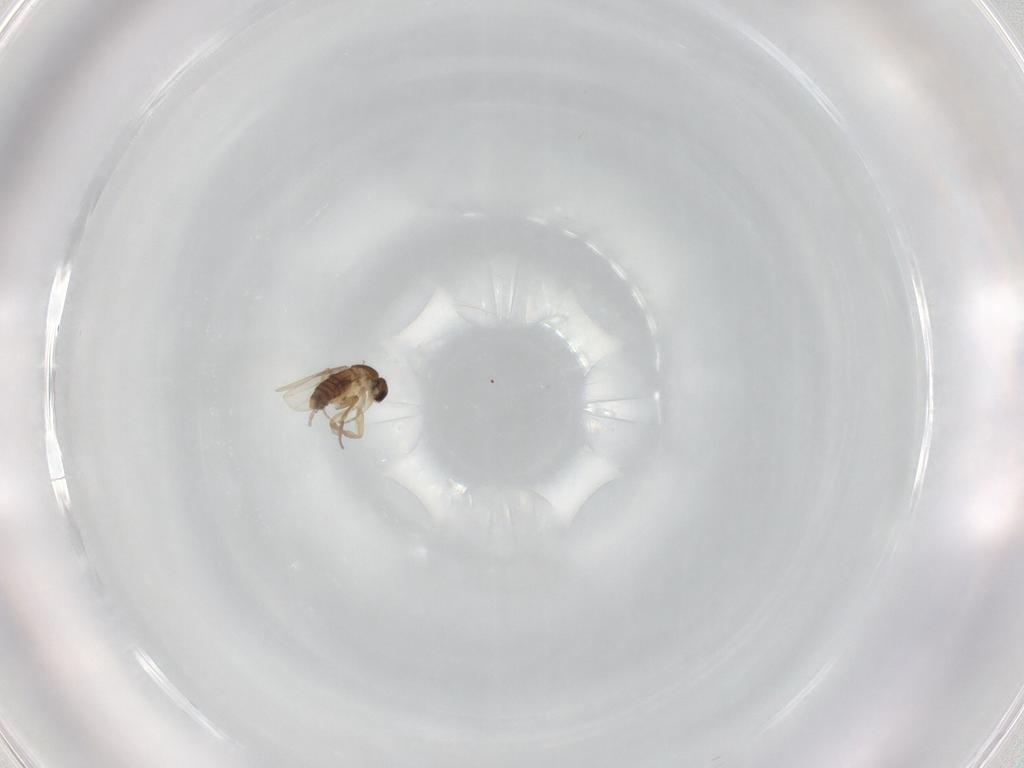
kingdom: Animalia
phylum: Arthropoda
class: Insecta
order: Diptera
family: Phoridae
